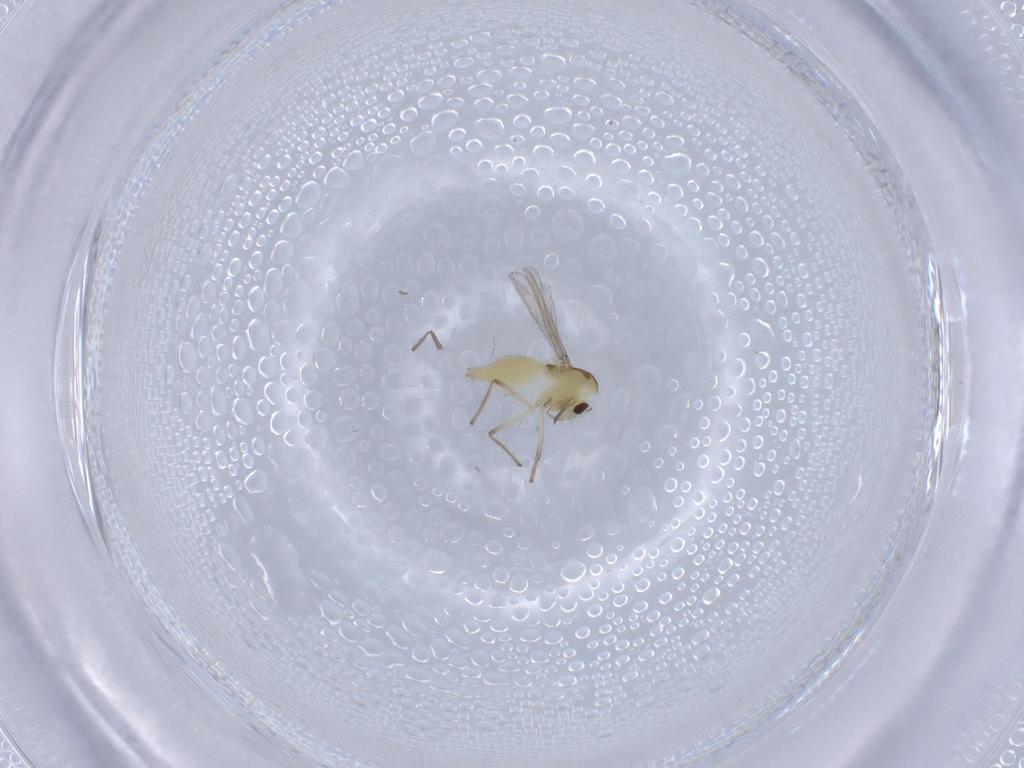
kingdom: Animalia
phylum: Arthropoda
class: Insecta
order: Diptera
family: Chironomidae
